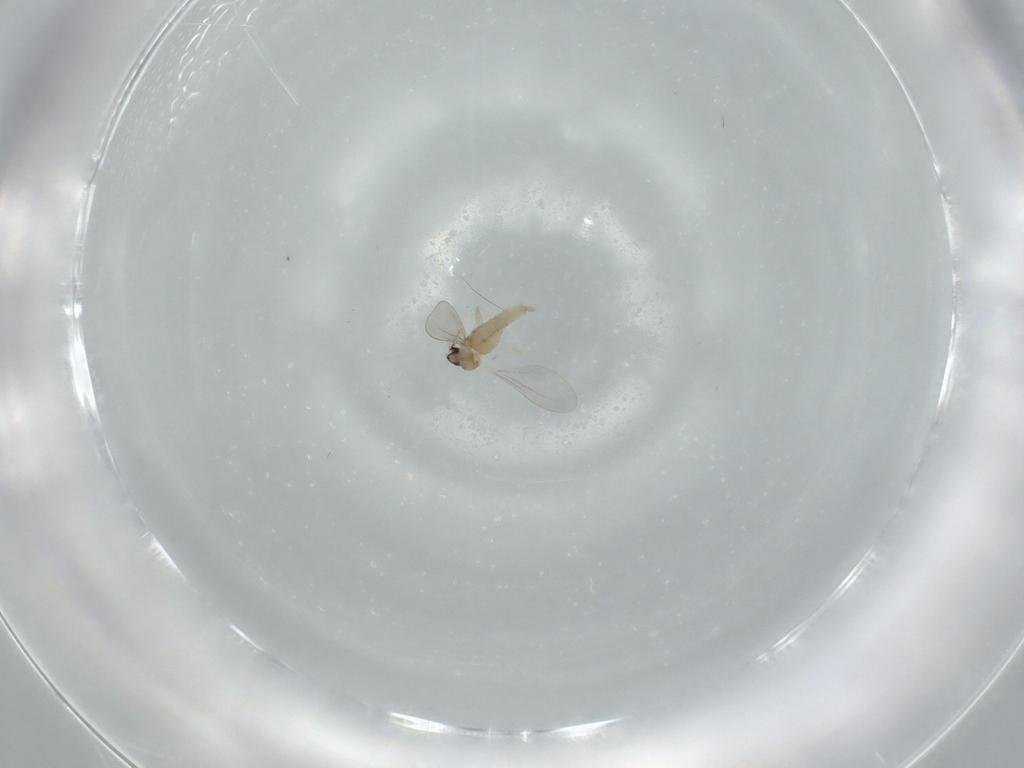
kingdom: Animalia
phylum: Arthropoda
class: Insecta
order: Diptera
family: Cecidomyiidae
